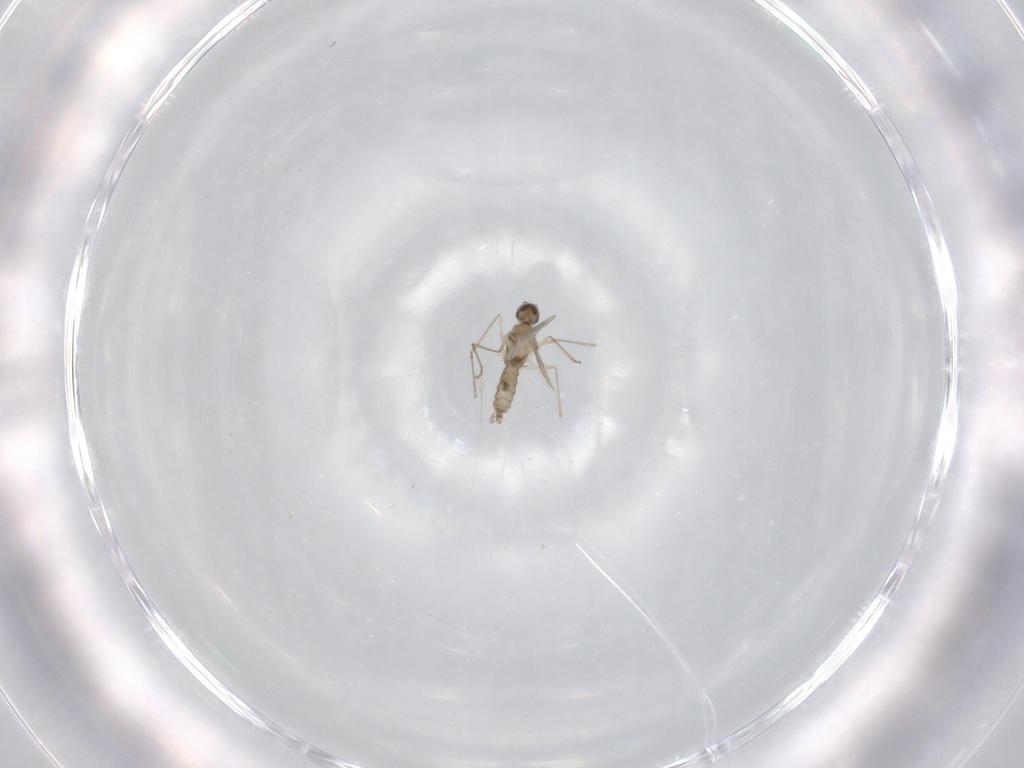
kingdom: Animalia
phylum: Arthropoda
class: Insecta
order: Diptera
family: Cecidomyiidae
